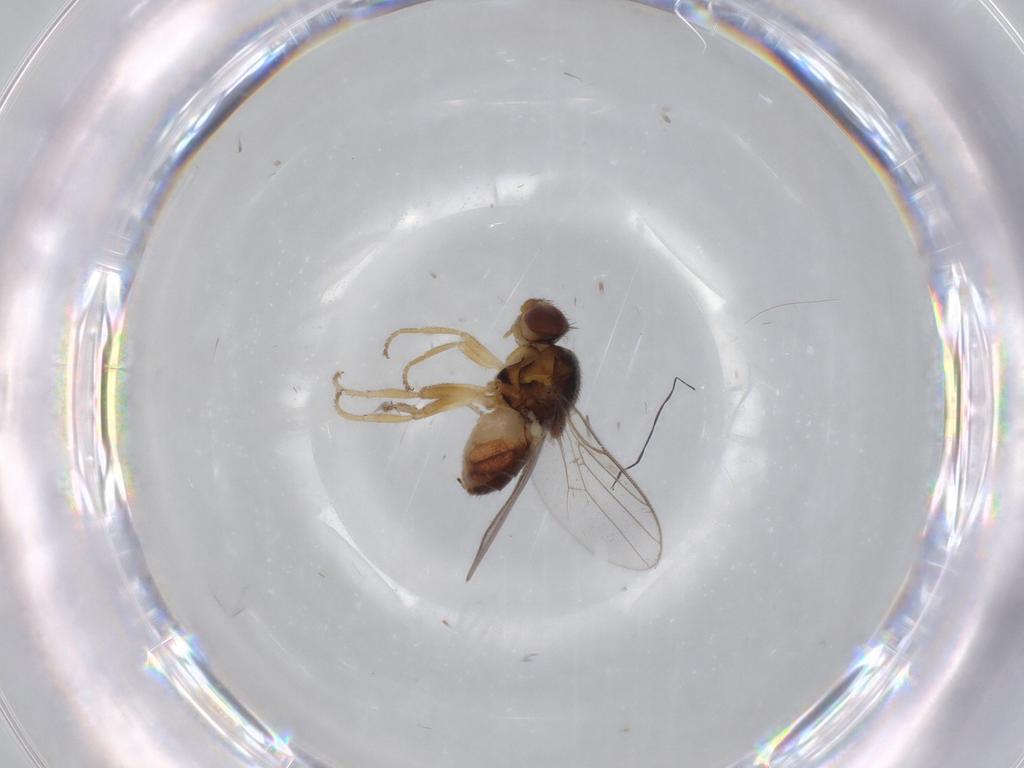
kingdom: Animalia
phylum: Arthropoda
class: Insecta
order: Diptera
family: Chloropidae
